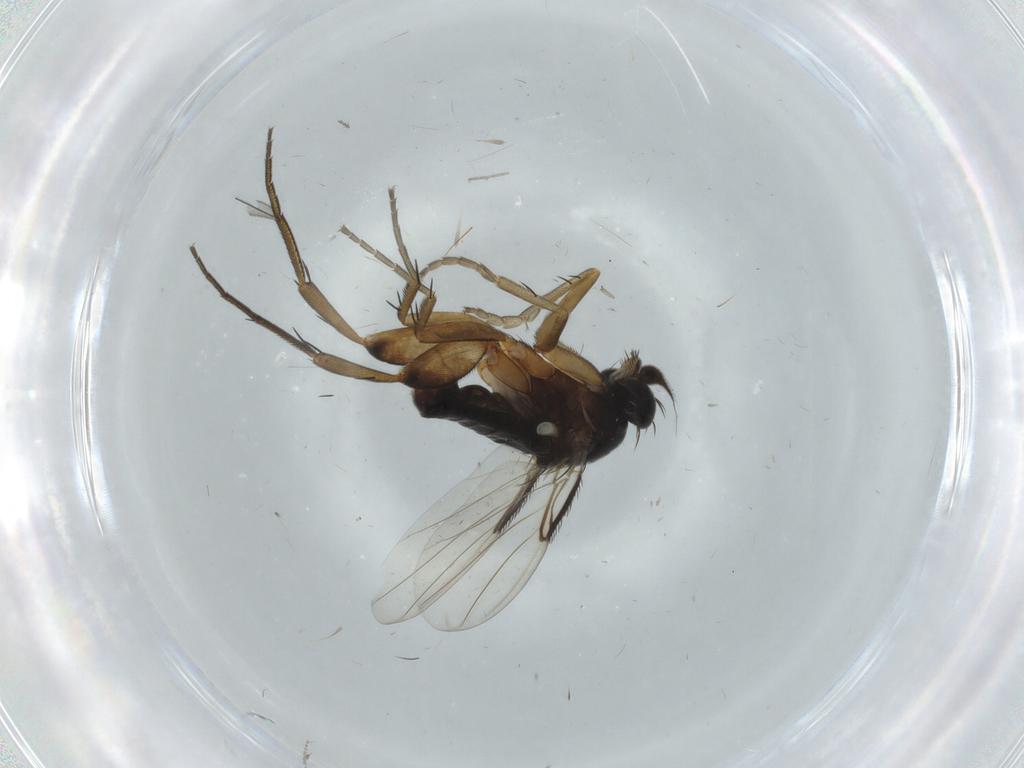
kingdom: Animalia
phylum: Arthropoda
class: Insecta
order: Diptera
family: Phoridae
